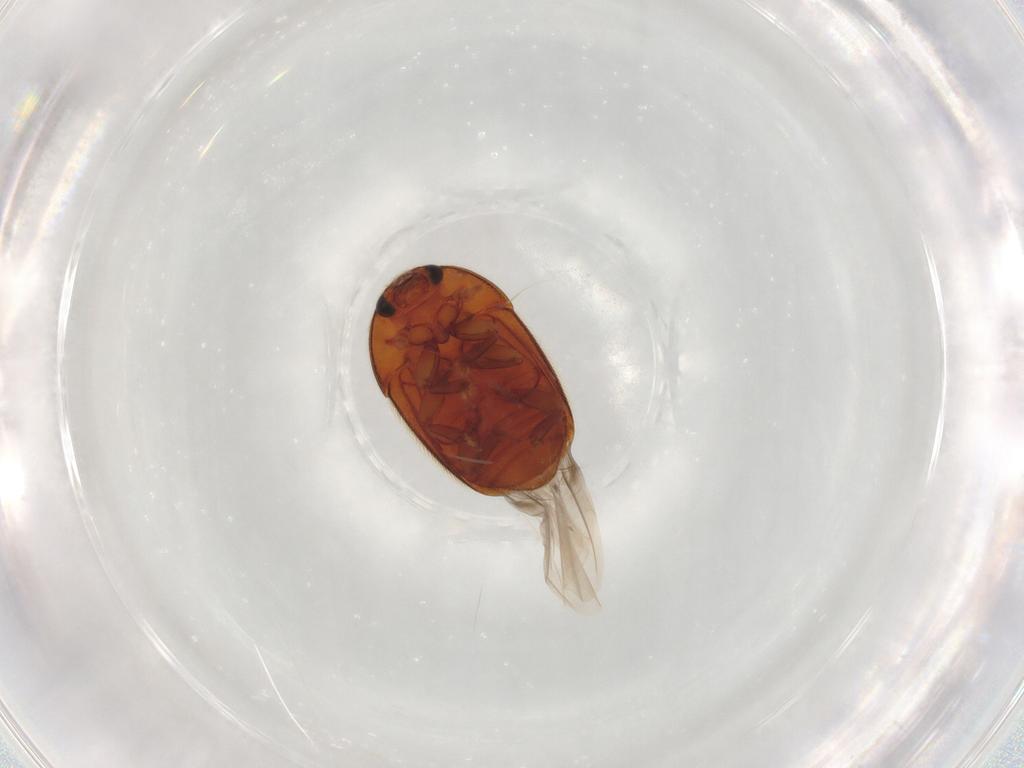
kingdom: Animalia
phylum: Arthropoda
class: Insecta
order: Coleoptera
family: Nitidulidae
